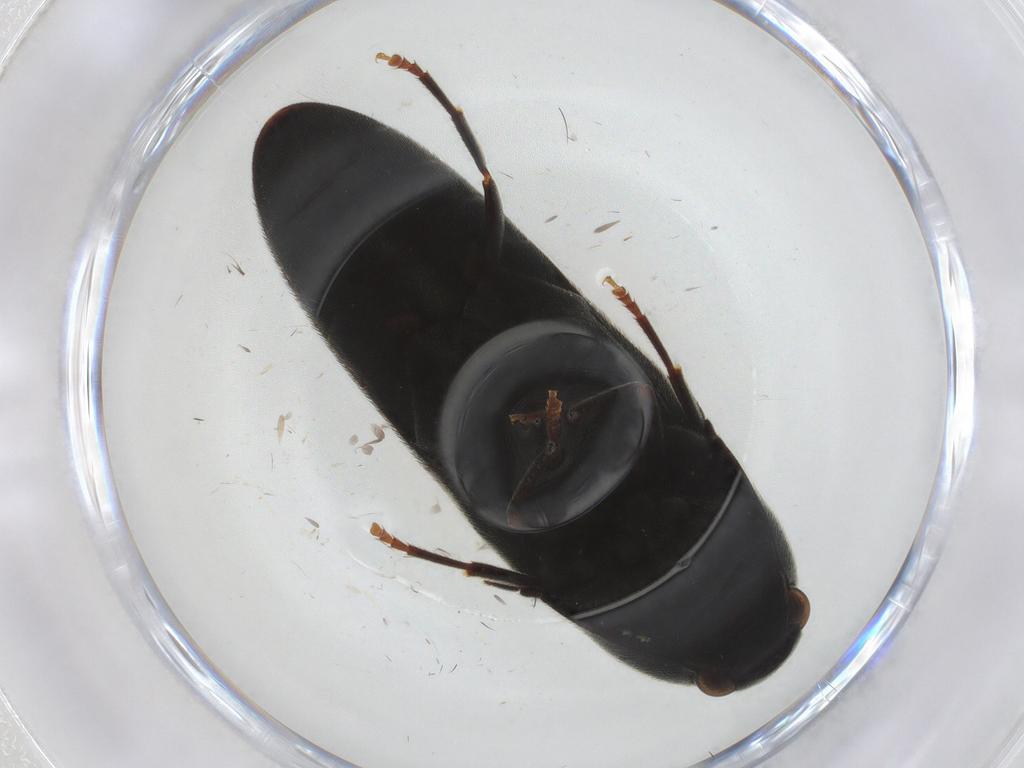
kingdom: Animalia
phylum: Arthropoda
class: Insecta
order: Coleoptera
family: Eucnemidae
